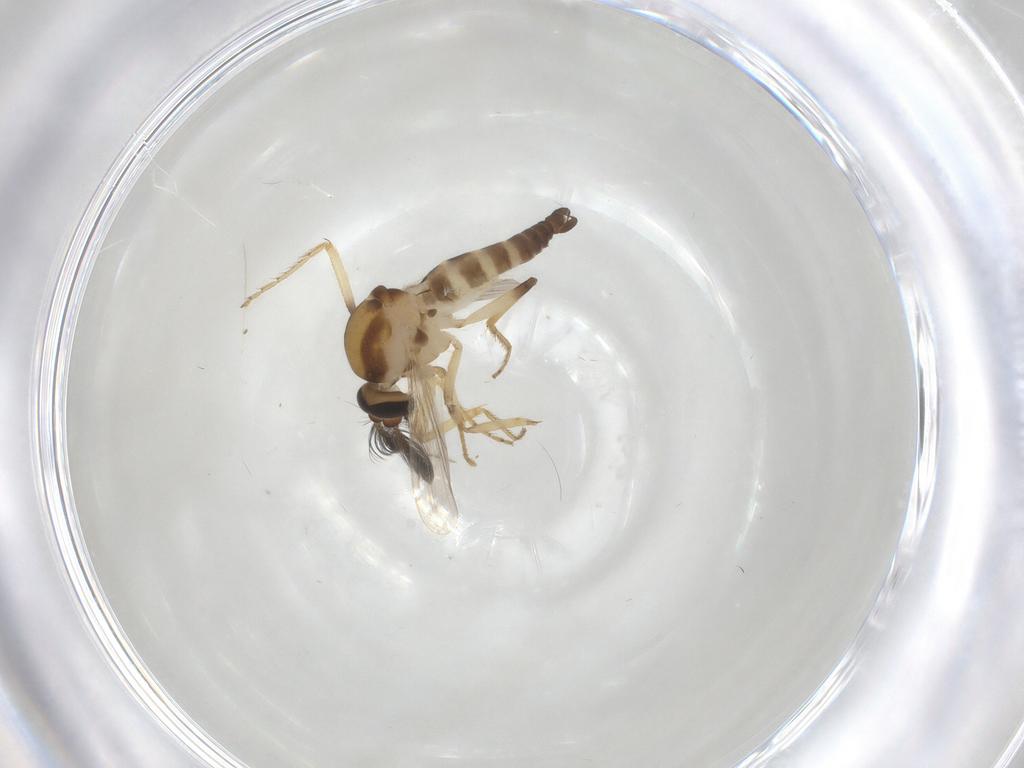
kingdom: Animalia
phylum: Arthropoda
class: Insecta
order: Diptera
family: Ceratopogonidae
